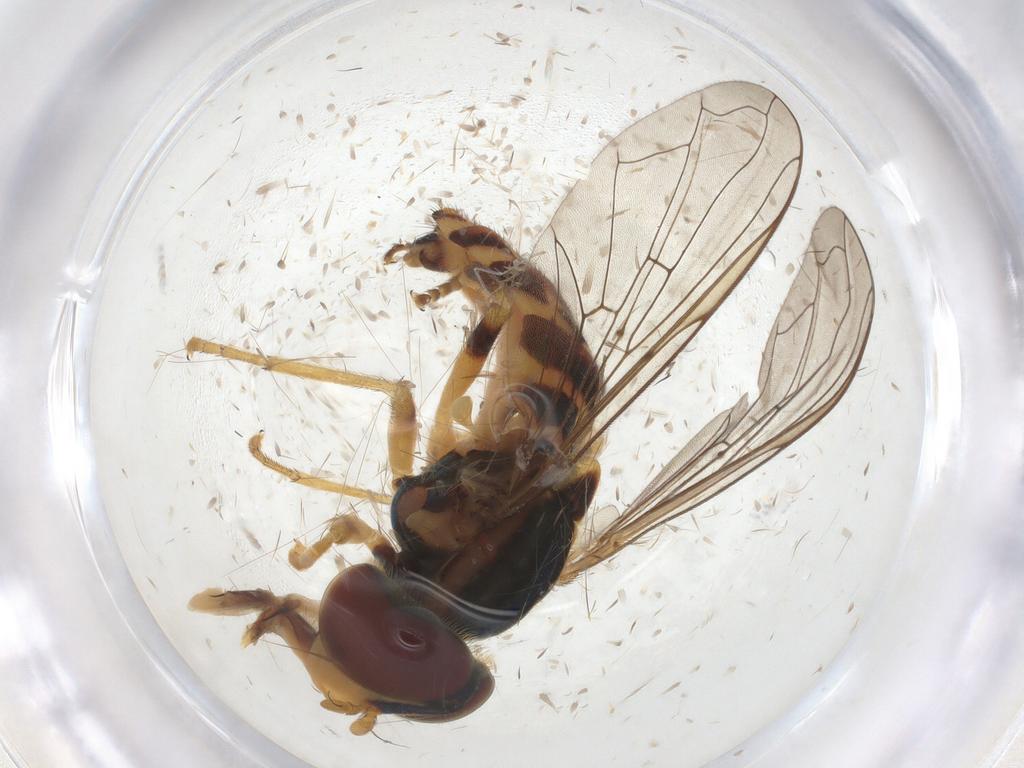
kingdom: Animalia
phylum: Arthropoda
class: Insecta
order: Diptera
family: Syrphidae
